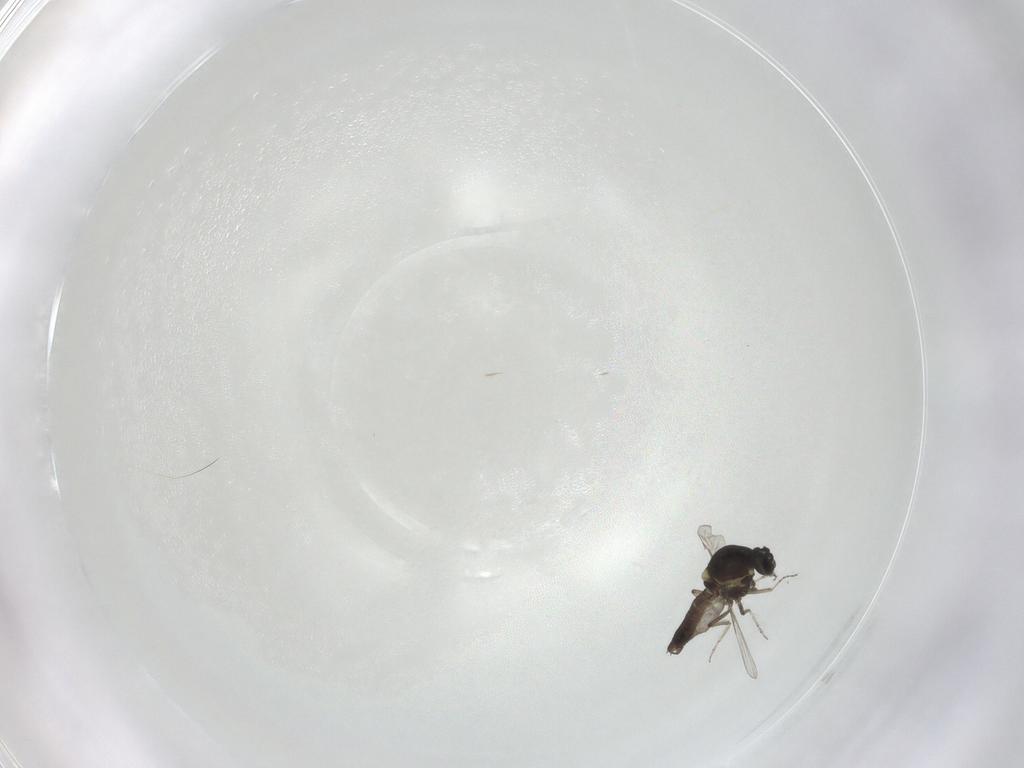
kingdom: Animalia
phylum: Arthropoda
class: Insecta
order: Diptera
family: Ceratopogonidae
